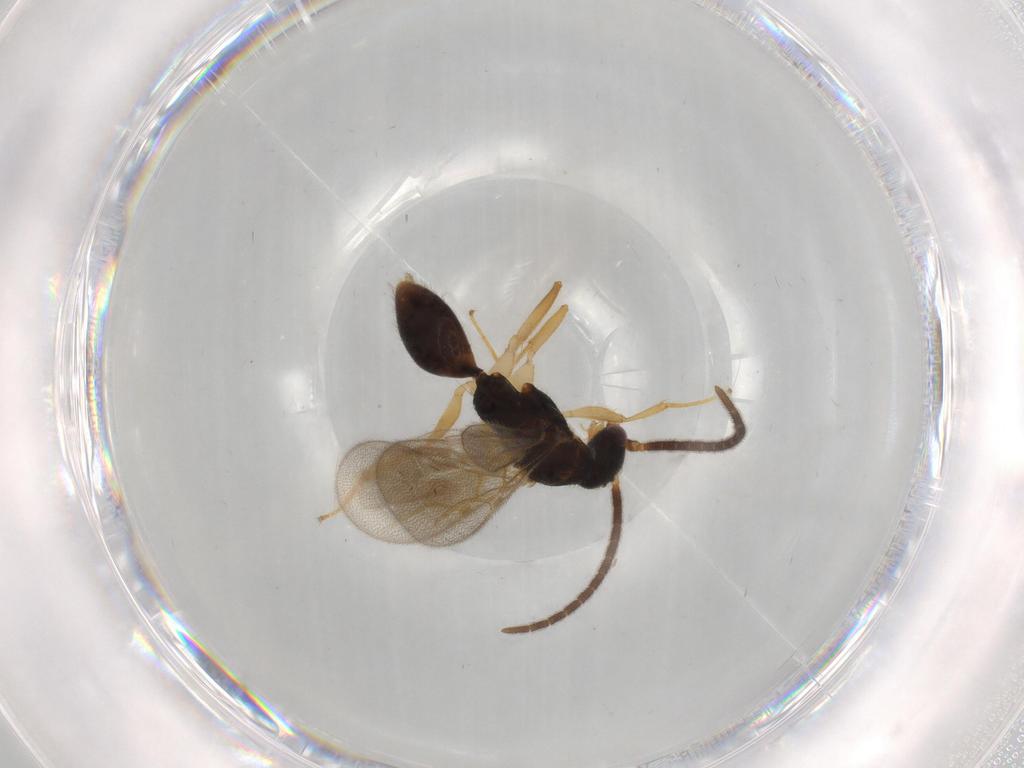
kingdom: Animalia
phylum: Arthropoda
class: Insecta
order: Hymenoptera
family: Bethylidae
